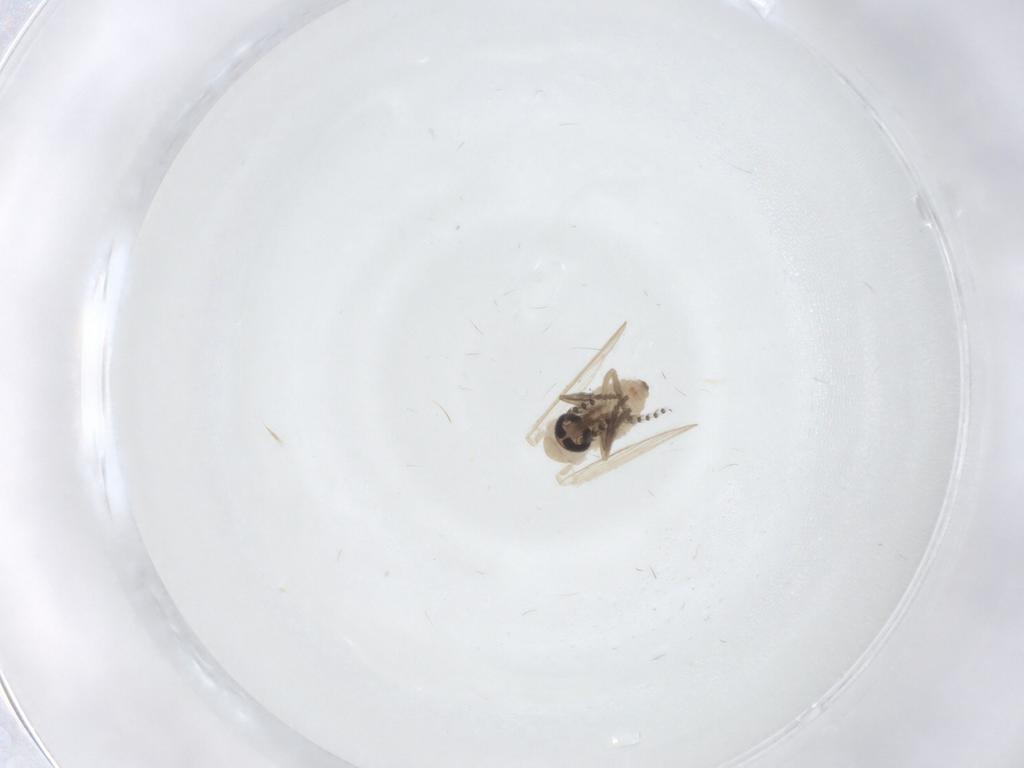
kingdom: Animalia
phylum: Arthropoda
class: Insecta
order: Diptera
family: Psychodidae
